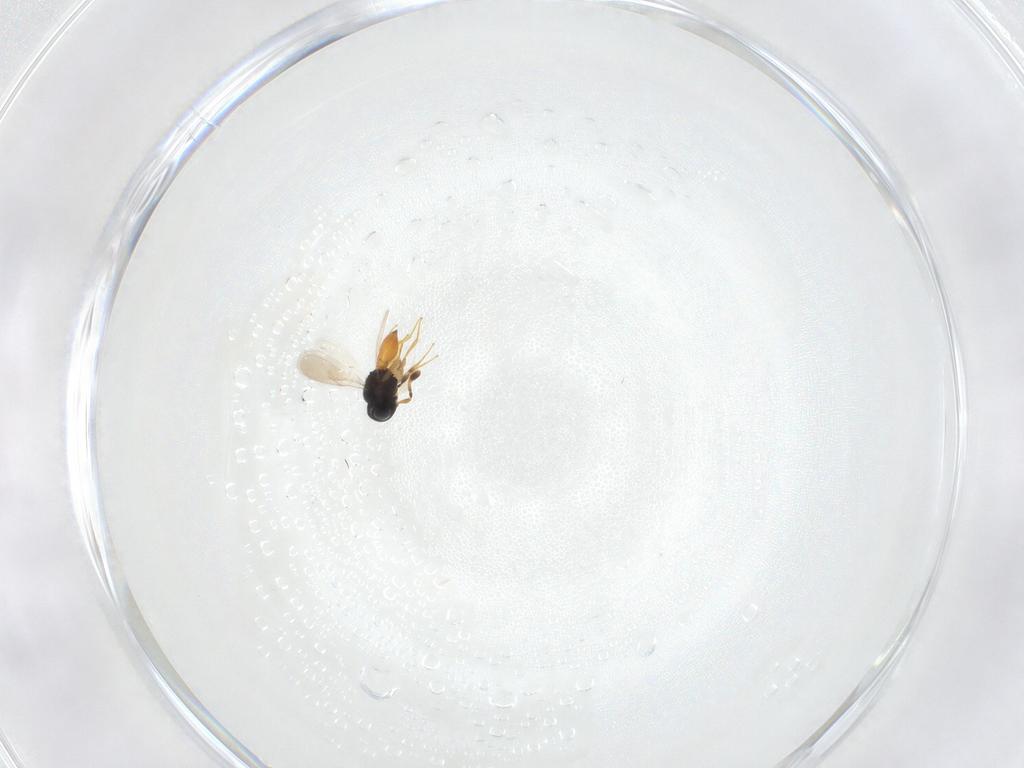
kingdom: Animalia
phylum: Arthropoda
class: Insecta
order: Hymenoptera
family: Scelionidae
